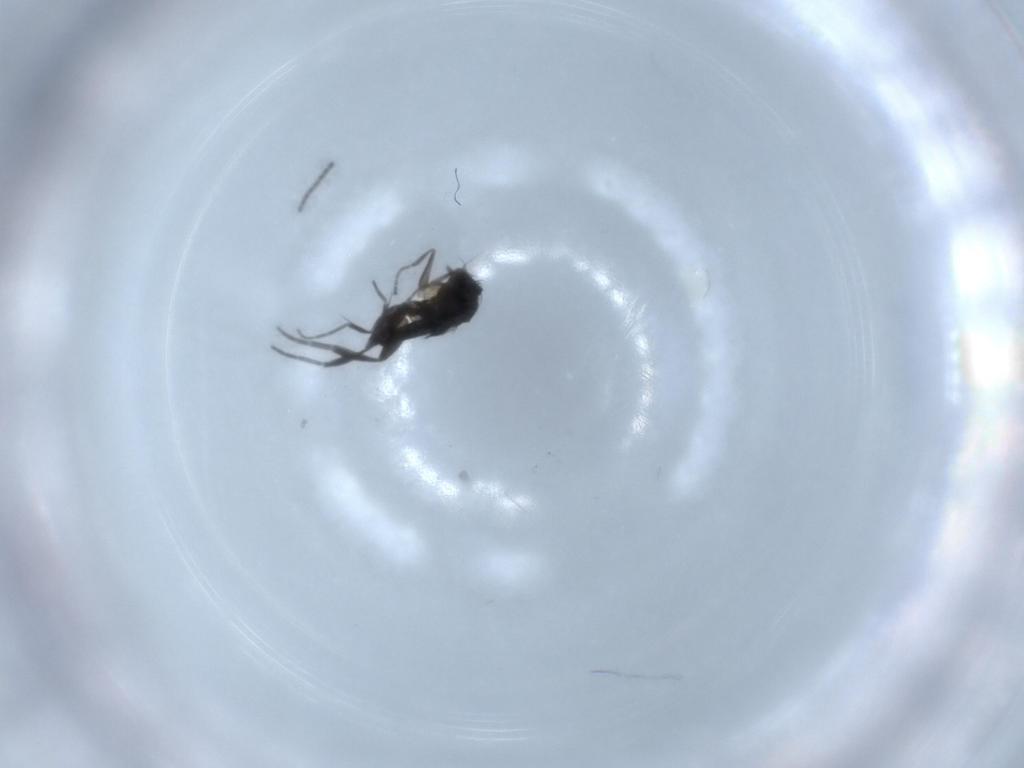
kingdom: Animalia
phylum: Arthropoda
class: Insecta
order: Diptera
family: Phoridae
